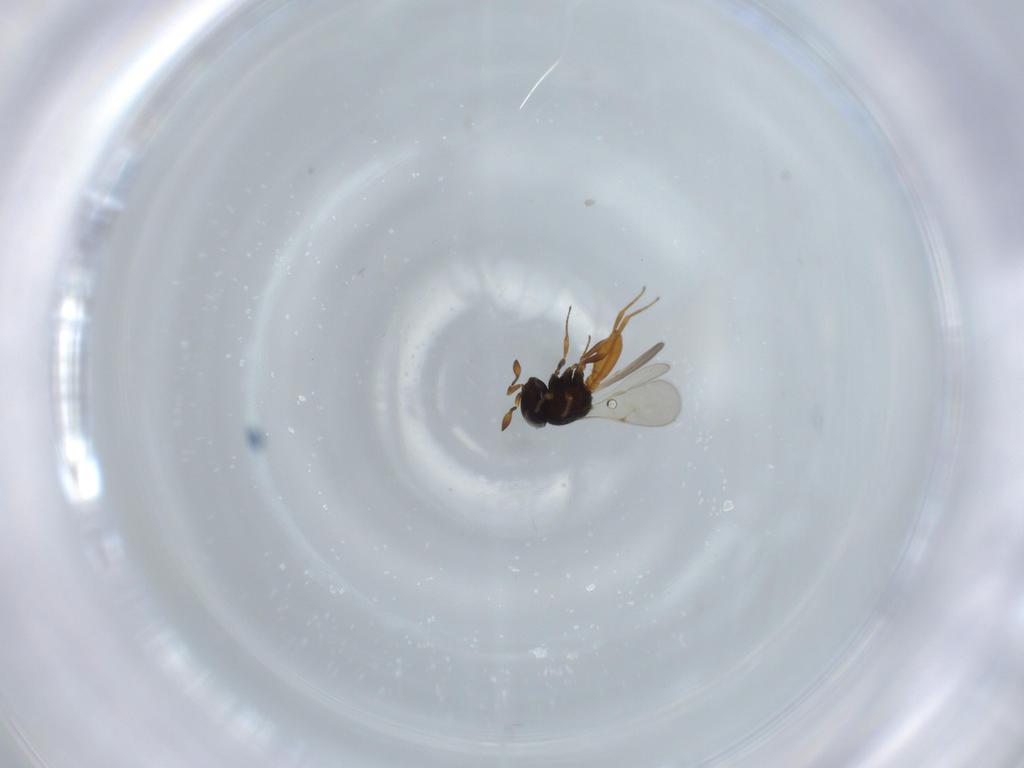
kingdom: Animalia
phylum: Arthropoda
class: Insecta
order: Hymenoptera
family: Scelionidae
